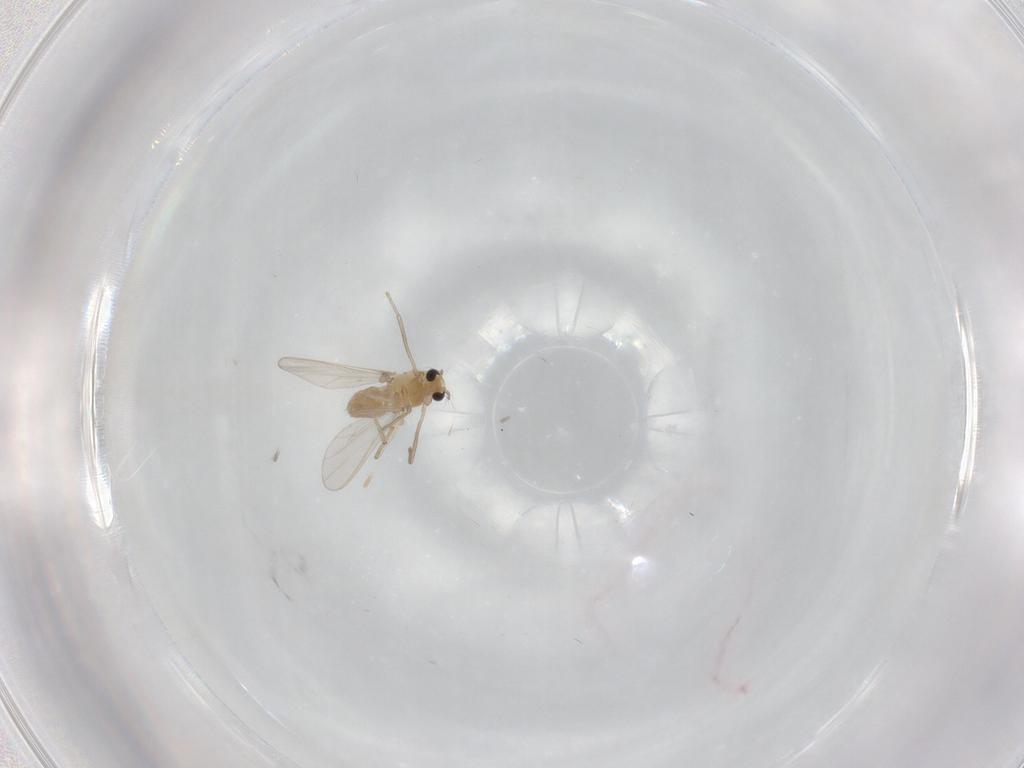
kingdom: Animalia
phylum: Arthropoda
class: Insecta
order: Diptera
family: Chironomidae
